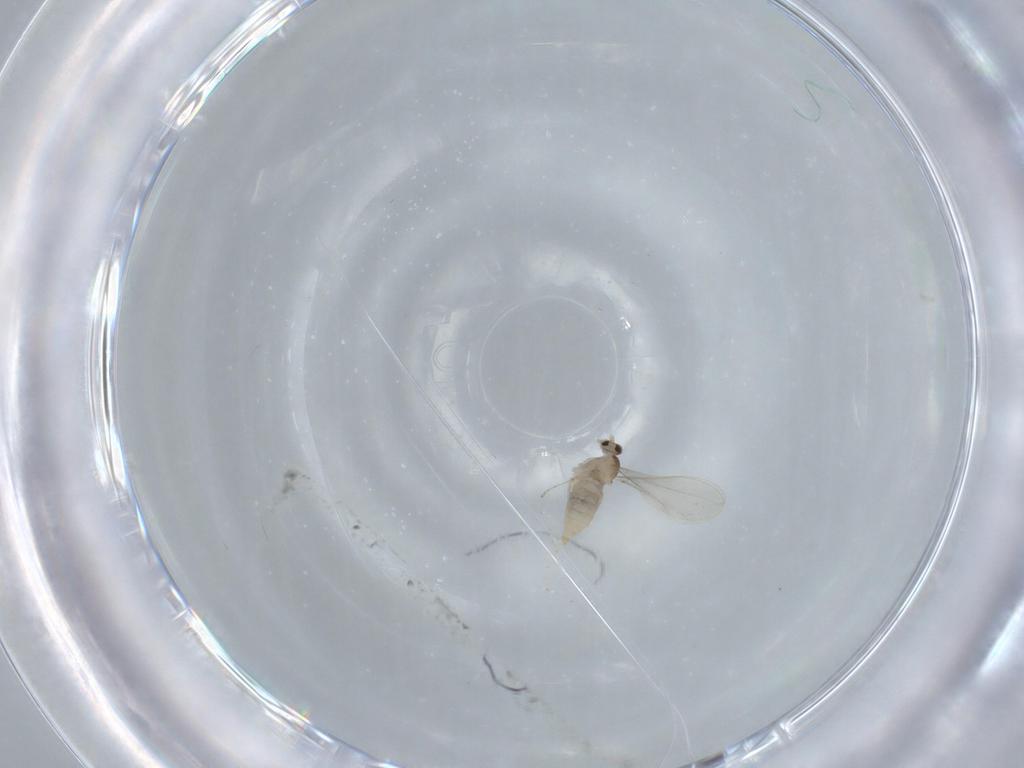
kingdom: Animalia
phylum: Arthropoda
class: Insecta
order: Diptera
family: Cecidomyiidae
